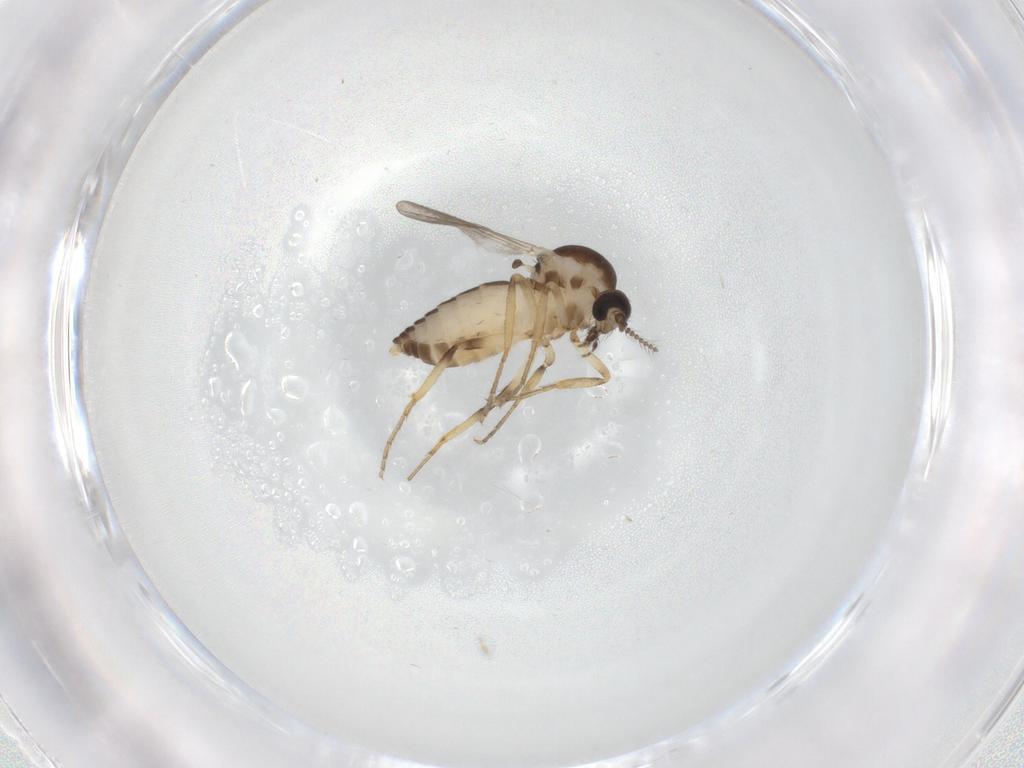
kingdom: Animalia
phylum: Arthropoda
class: Insecta
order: Diptera
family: Ceratopogonidae
